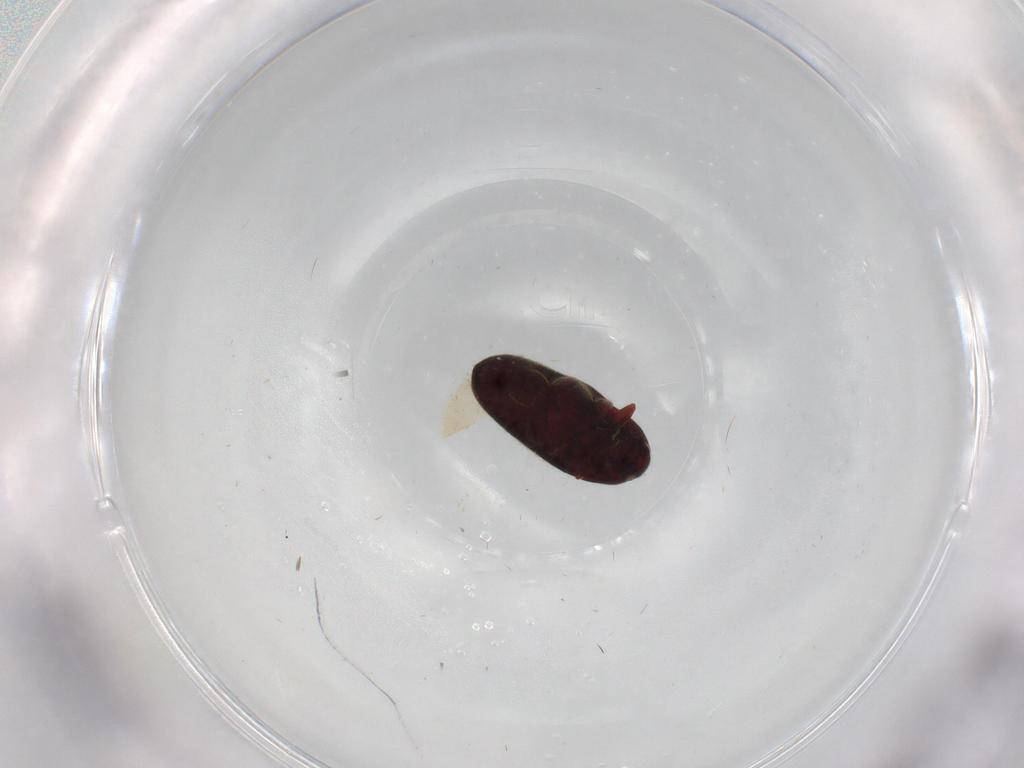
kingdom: Animalia
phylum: Arthropoda
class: Insecta
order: Coleoptera
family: Throscidae
